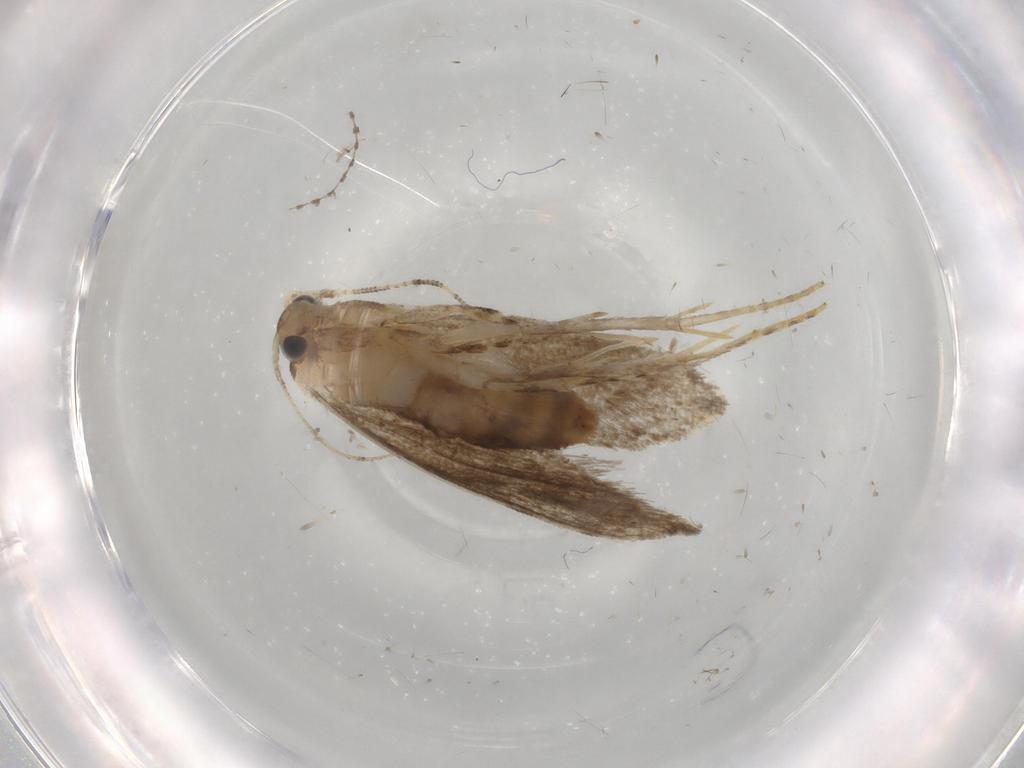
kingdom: Animalia
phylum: Arthropoda
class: Insecta
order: Lepidoptera
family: Tineidae
